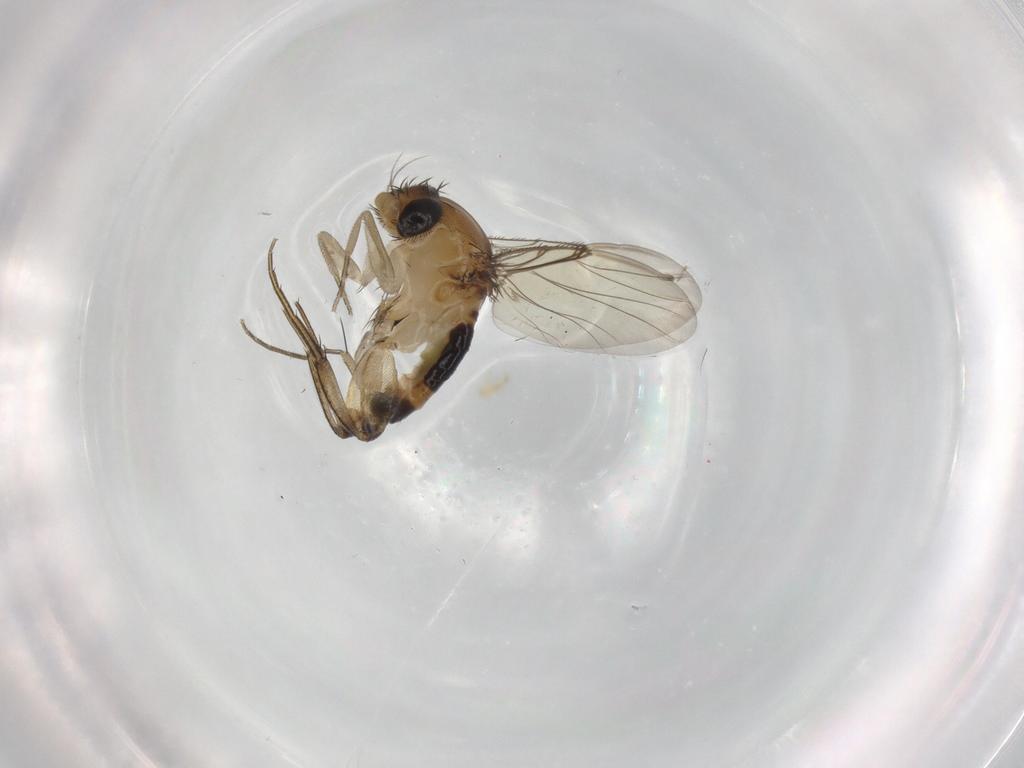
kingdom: Animalia
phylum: Arthropoda
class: Insecta
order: Diptera
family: Phoridae
